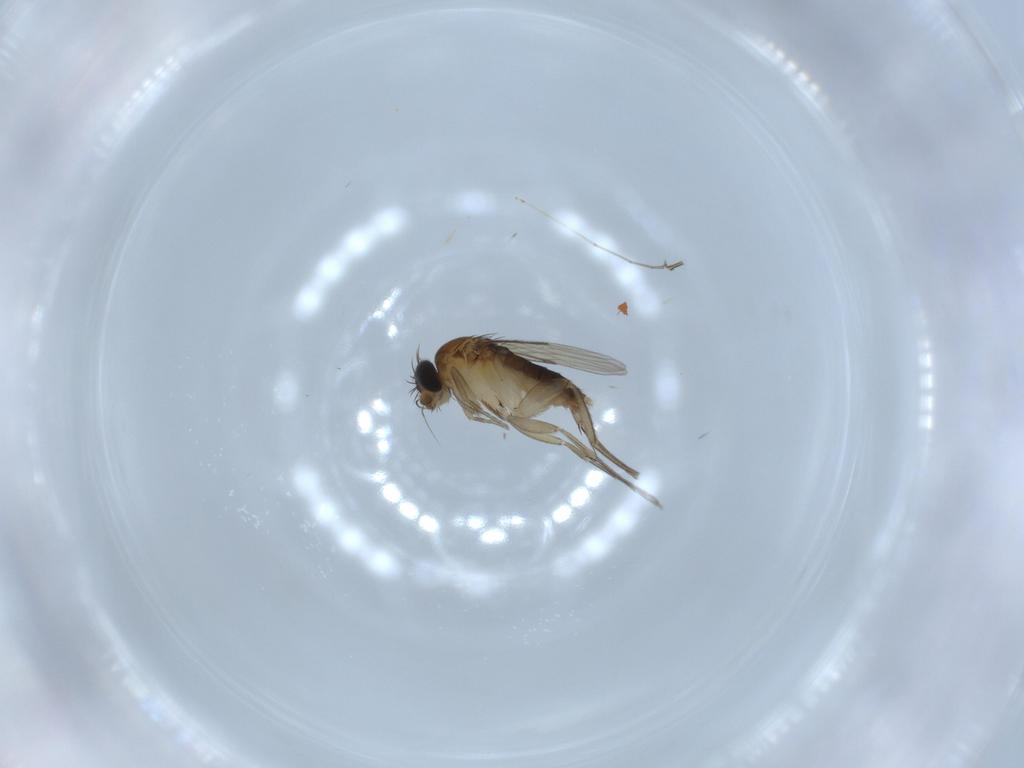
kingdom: Animalia
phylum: Arthropoda
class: Insecta
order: Diptera
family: Phoridae
